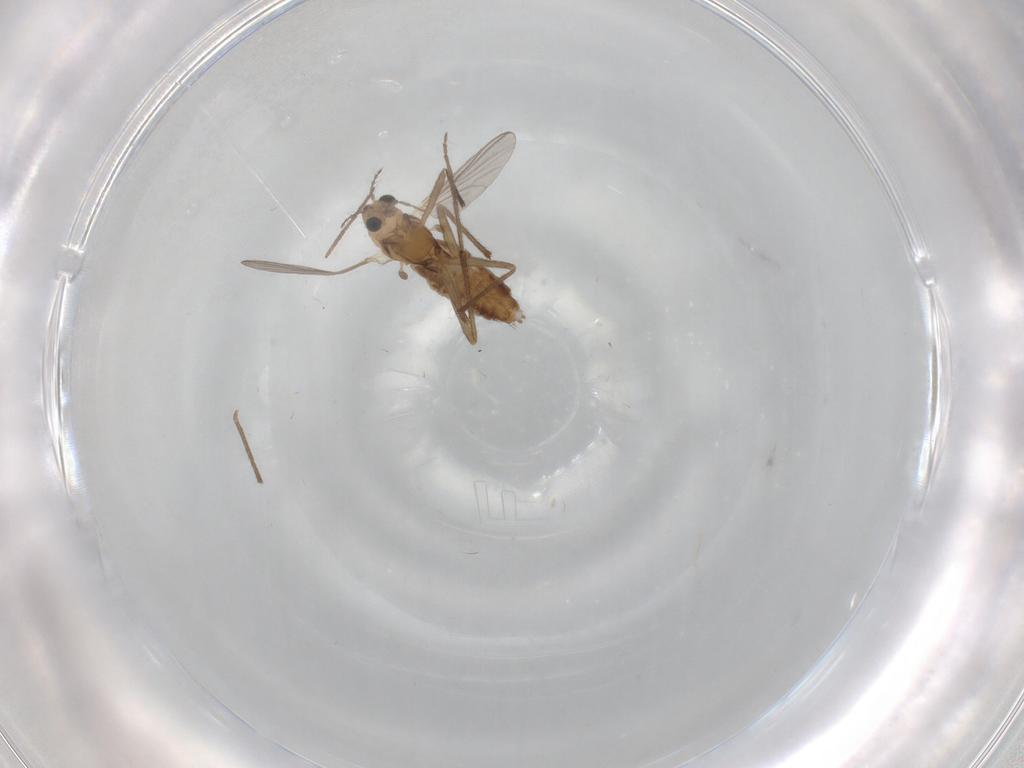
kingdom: Animalia
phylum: Arthropoda
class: Insecta
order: Diptera
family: Chironomidae
